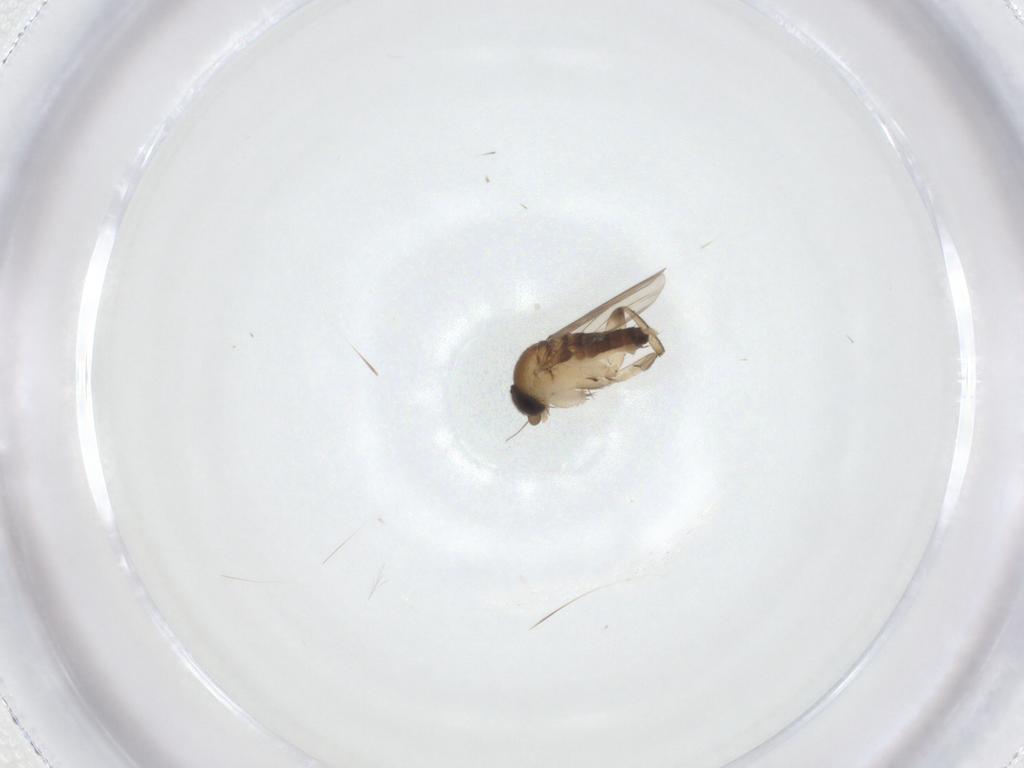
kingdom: Animalia
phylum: Arthropoda
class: Insecta
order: Diptera
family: Phoridae
